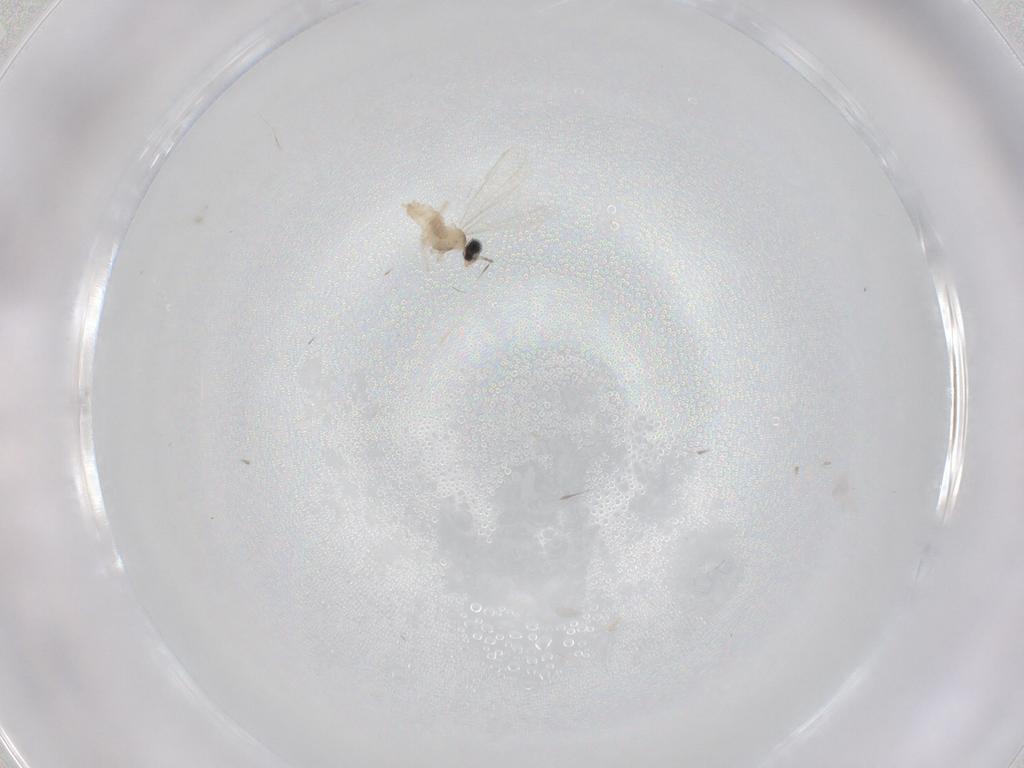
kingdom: Animalia
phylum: Arthropoda
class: Insecta
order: Diptera
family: Cecidomyiidae
